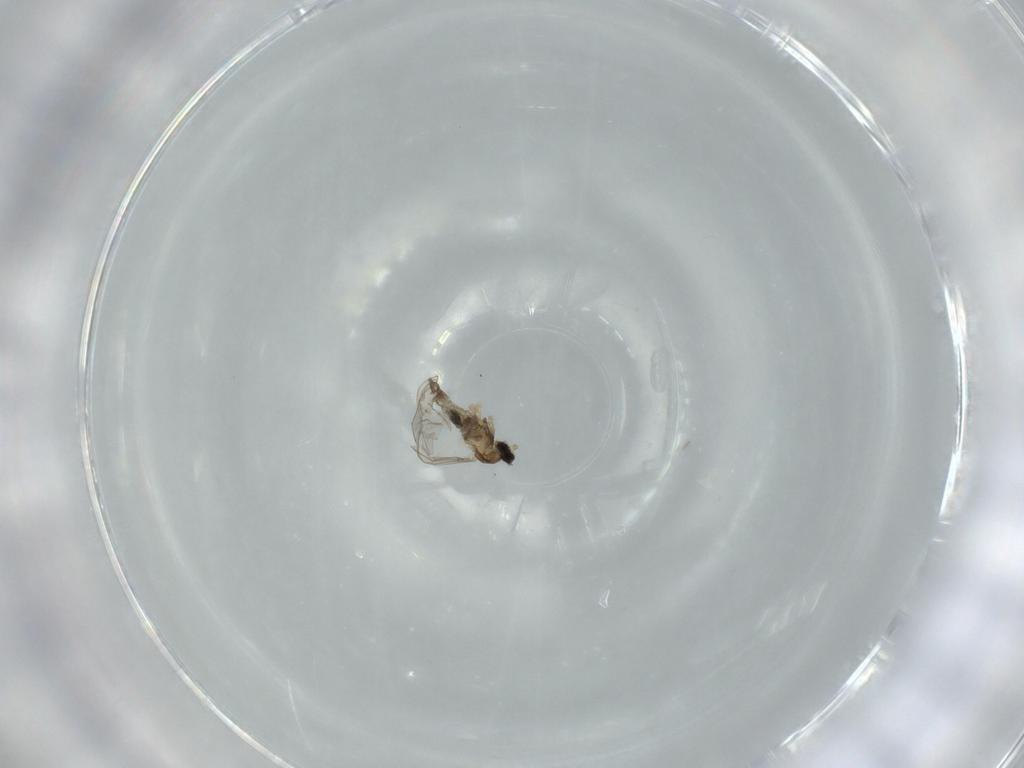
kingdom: Animalia
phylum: Arthropoda
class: Insecta
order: Diptera
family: Cecidomyiidae
